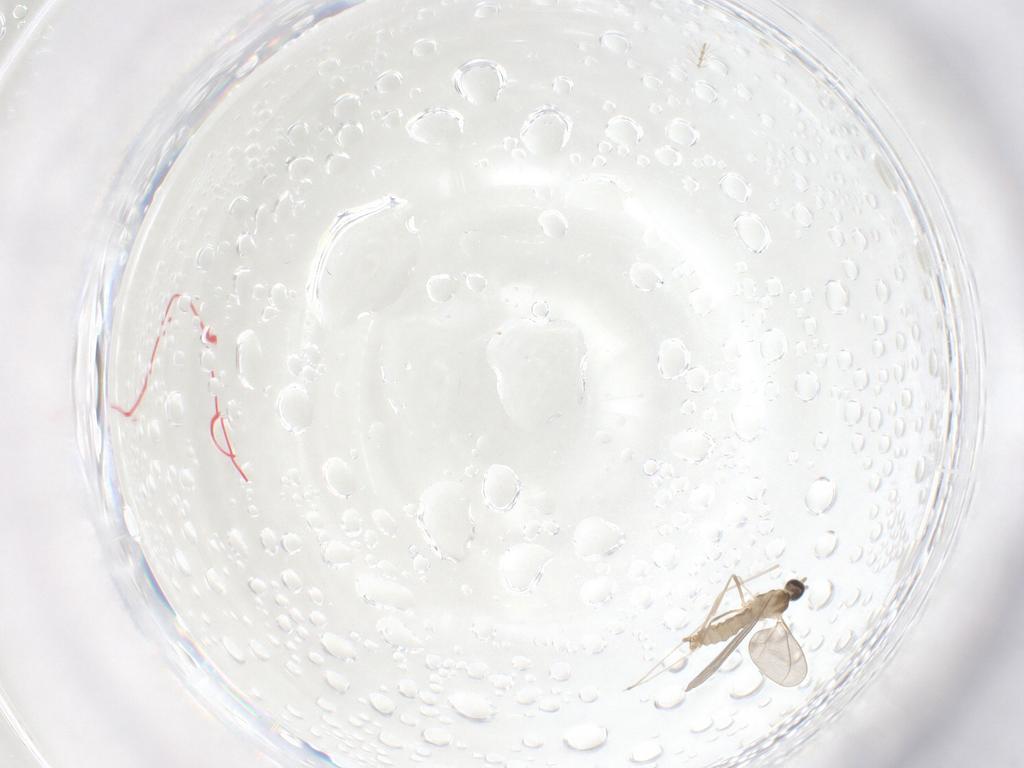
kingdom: Animalia
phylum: Arthropoda
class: Insecta
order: Diptera
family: Cecidomyiidae
